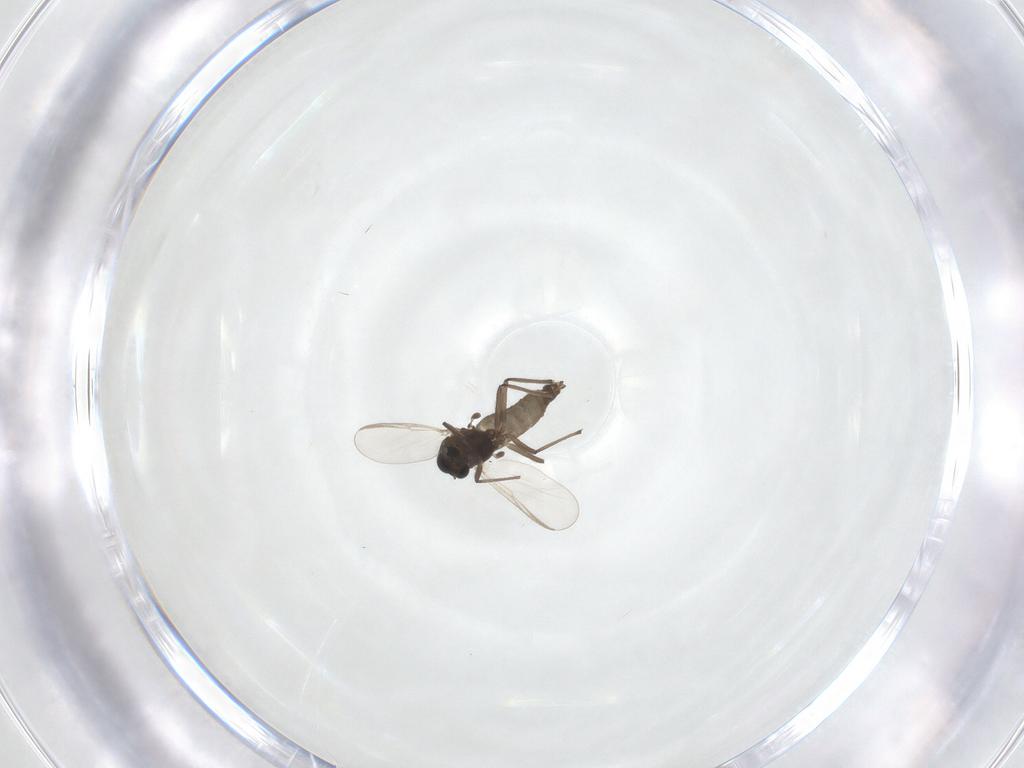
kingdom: Animalia
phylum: Arthropoda
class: Insecta
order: Diptera
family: Chironomidae
